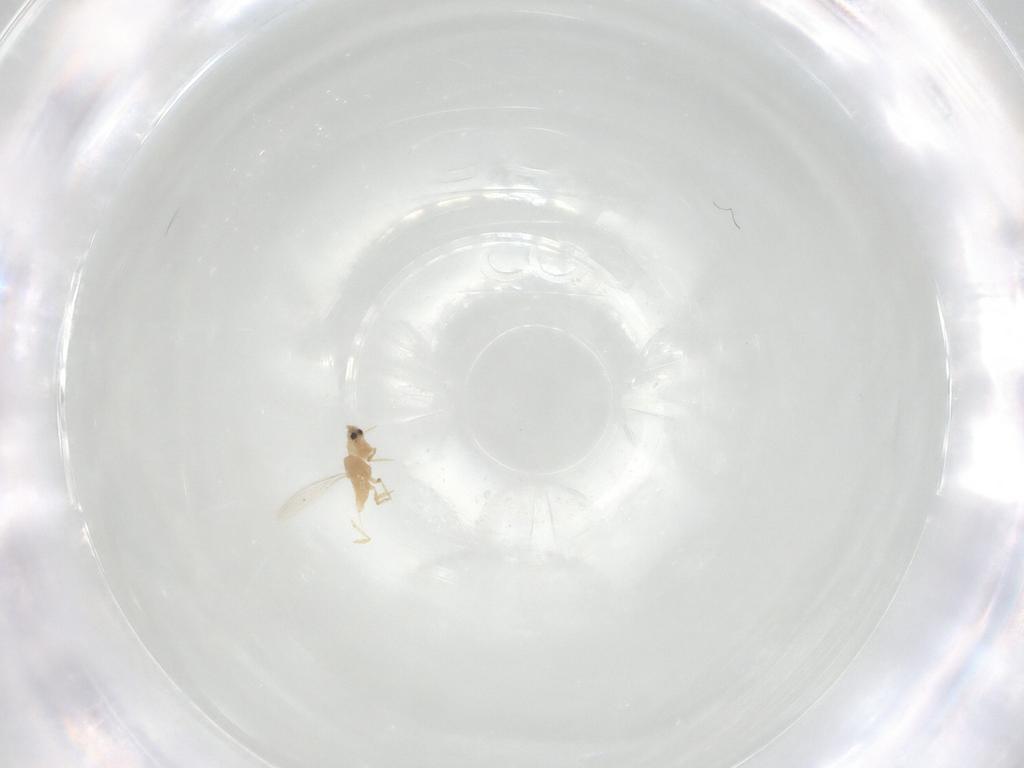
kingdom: Animalia
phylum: Arthropoda
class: Insecta
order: Hemiptera
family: Diaspididae
